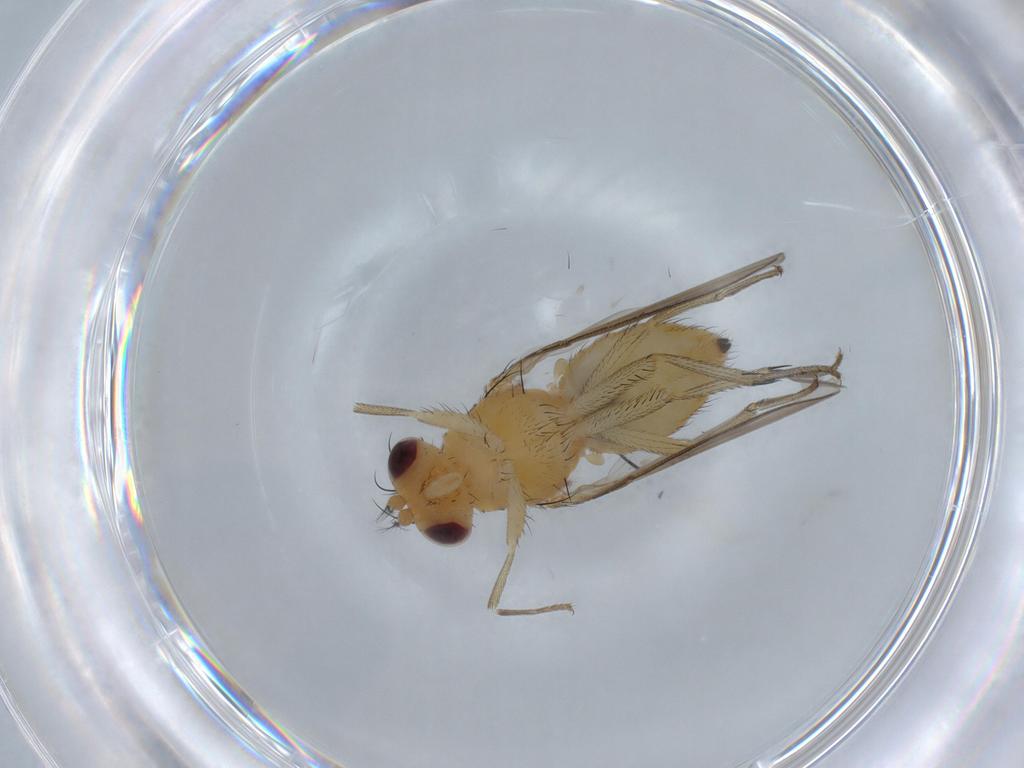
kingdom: Animalia
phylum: Arthropoda
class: Insecta
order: Diptera
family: Lauxaniidae
